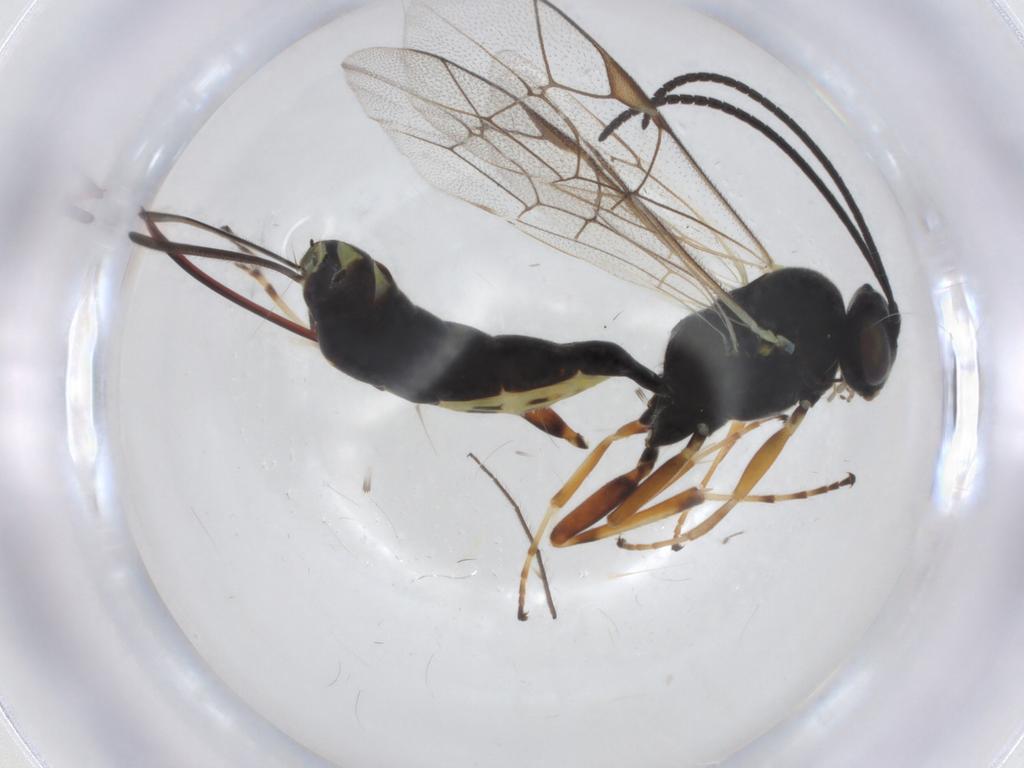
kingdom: Animalia
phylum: Arthropoda
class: Insecta
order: Hymenoptera
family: Ichneumonidae
